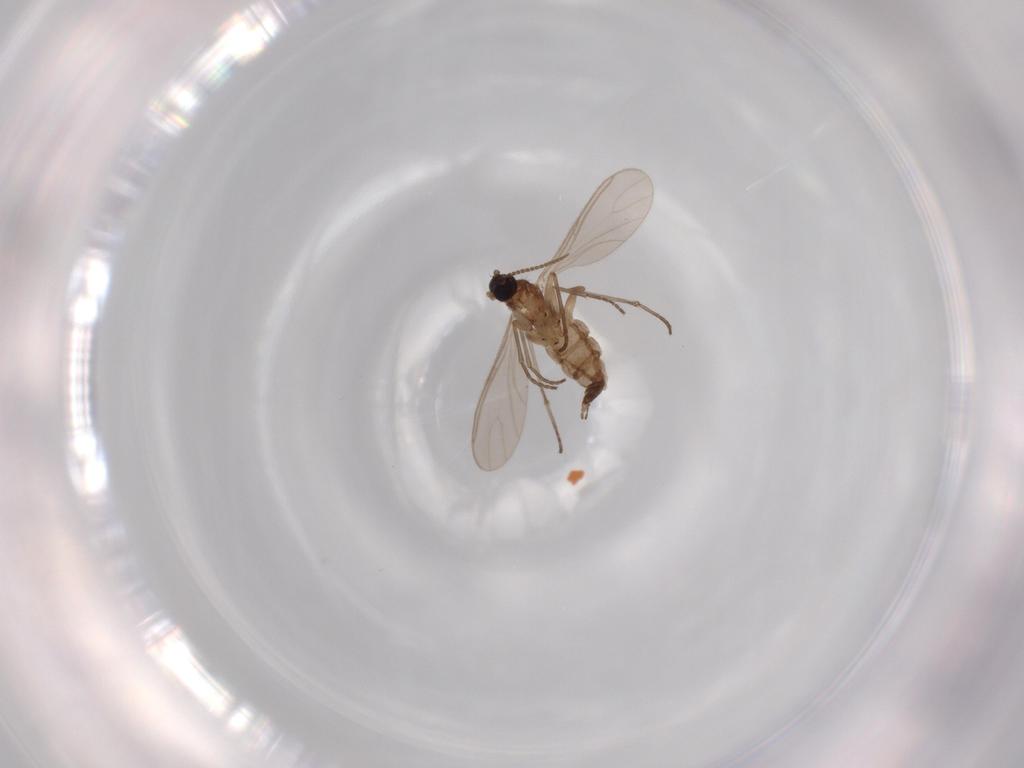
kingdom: Animalia
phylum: Arthropoda
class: Insecta
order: Diptera
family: Sciaridae
